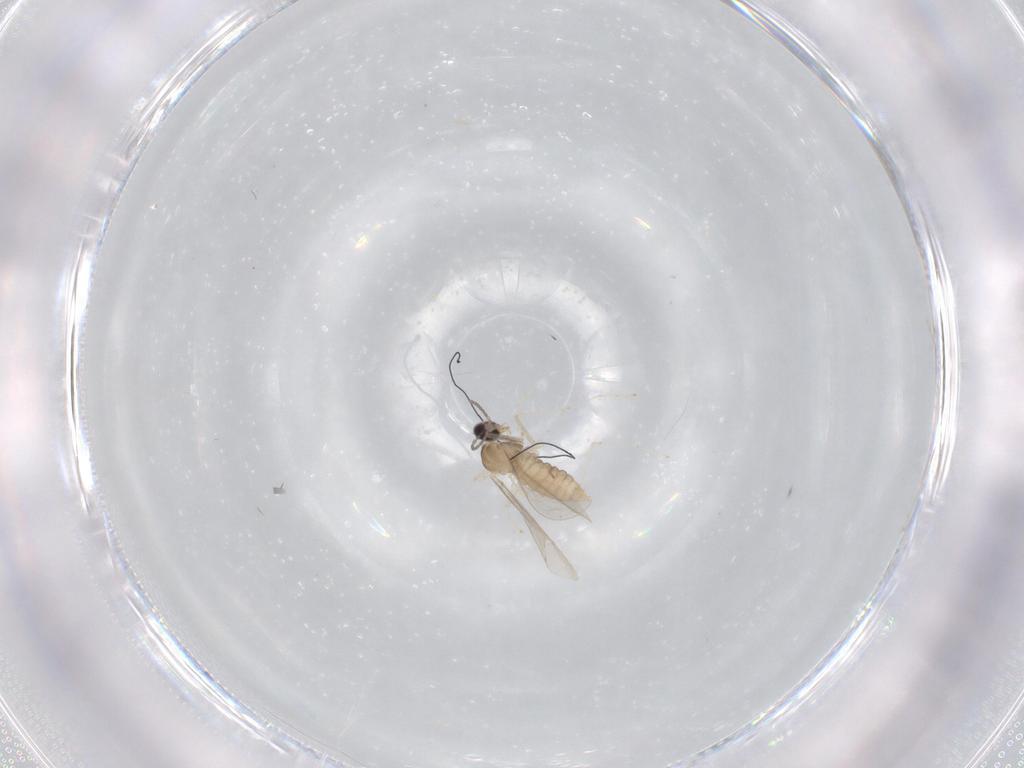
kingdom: Animalia
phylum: Arthropoda
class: Insecta
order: Diptera
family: Cecidomyiidae
